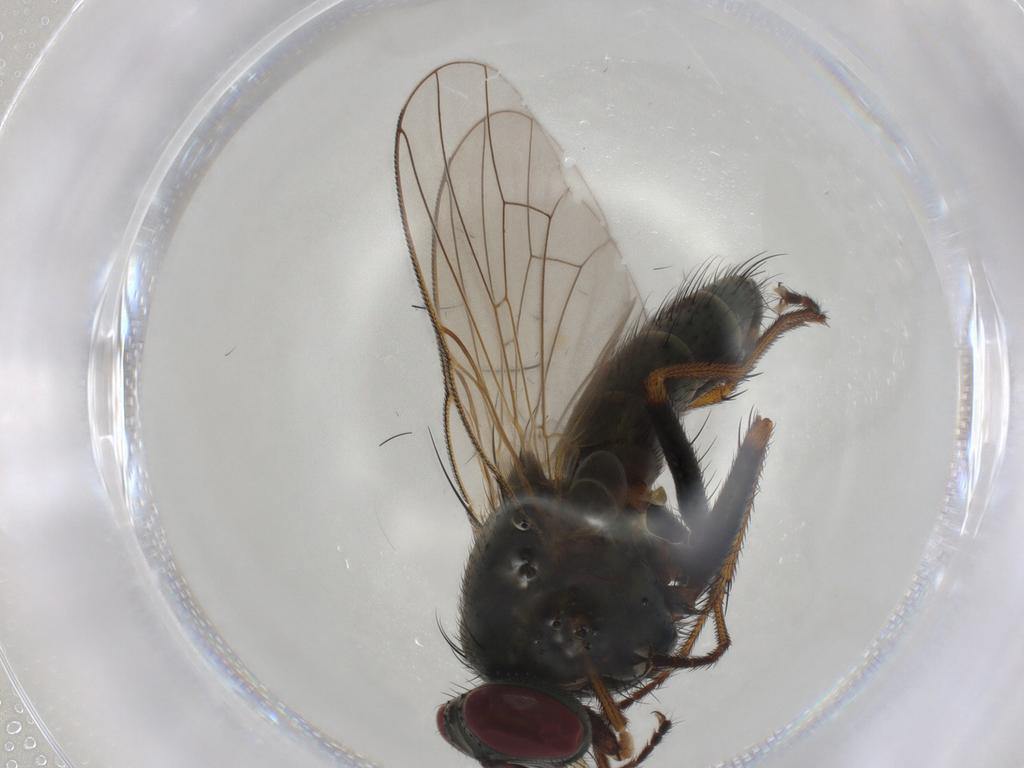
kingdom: Animalia
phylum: Arthropoda
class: Insecta
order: Diptera
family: Muscidae
